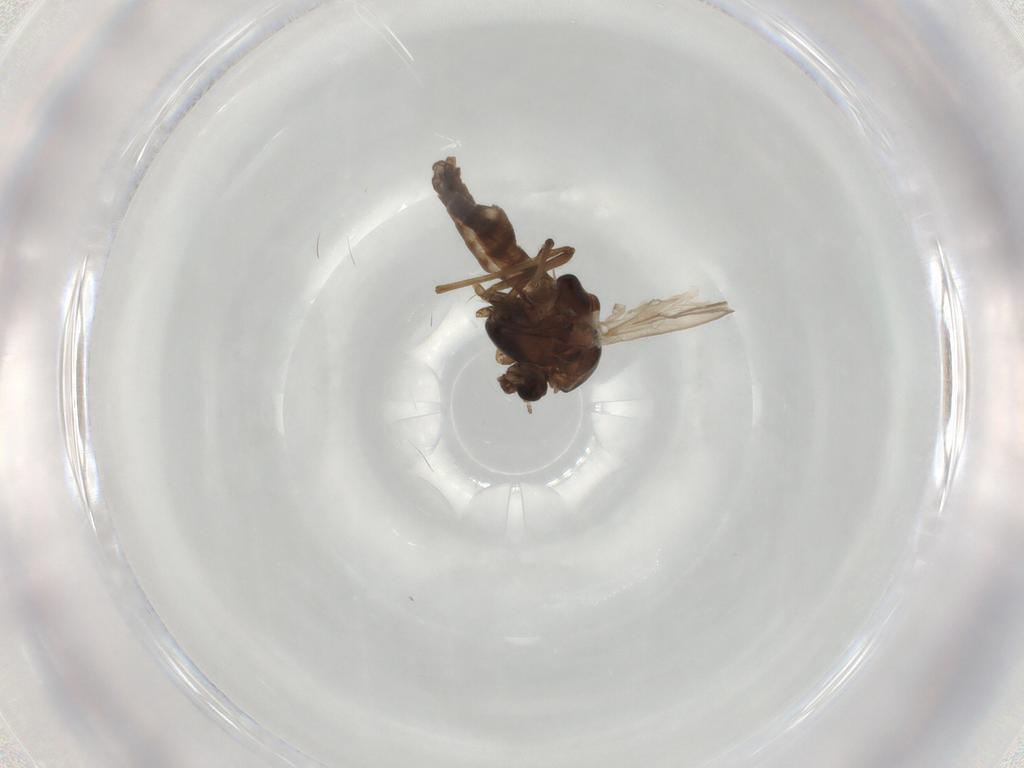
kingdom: Animalia
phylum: Arthropoda
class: Insecta
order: Diptera
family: Chironomidae
